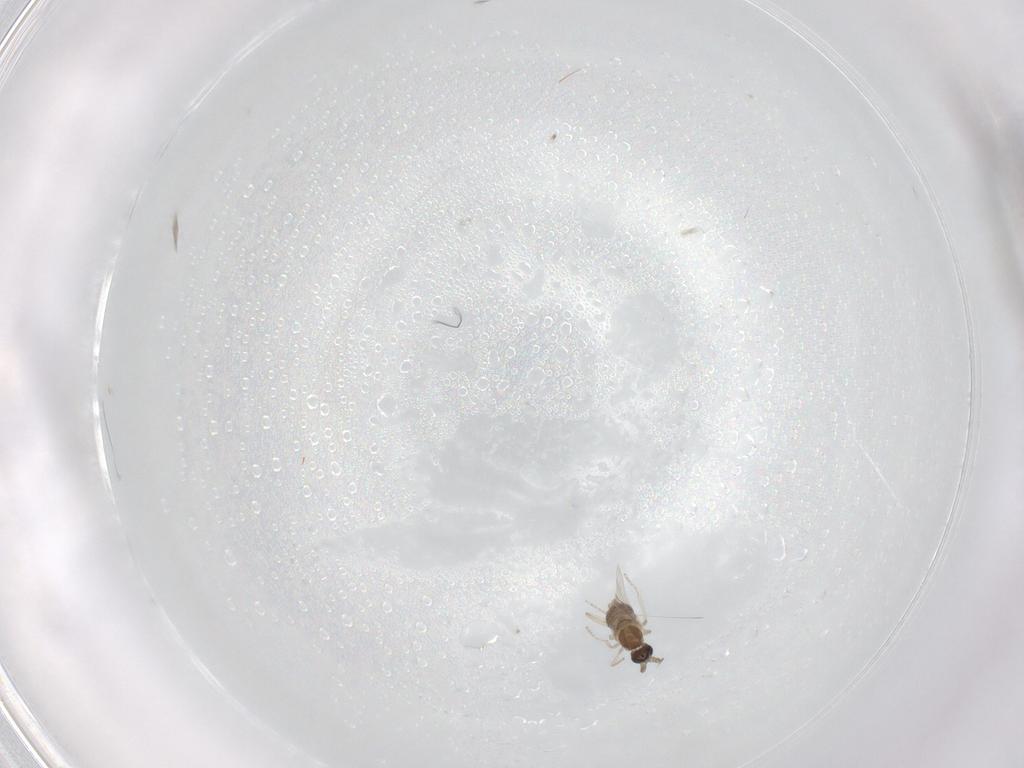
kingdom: Animalia
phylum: Arthropoda
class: Insecta
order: Diptera
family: Cecidomyiidae
